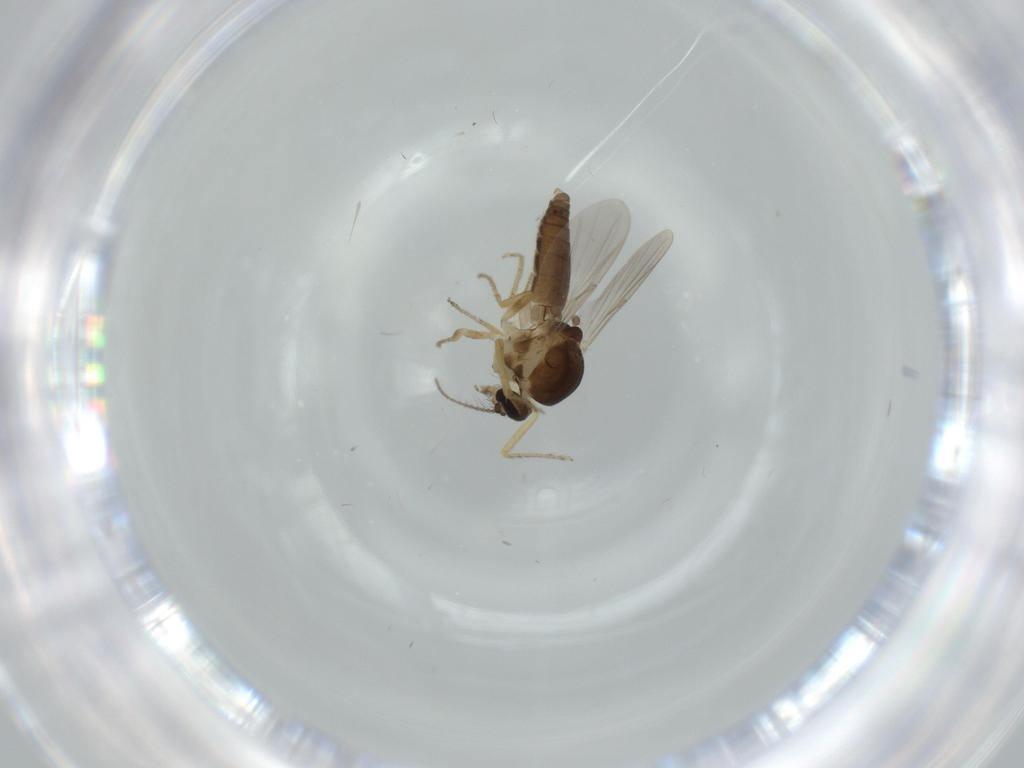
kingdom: Animalia
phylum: Arthropoda
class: Insecta
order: Diptera
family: Ceratopogonidae
